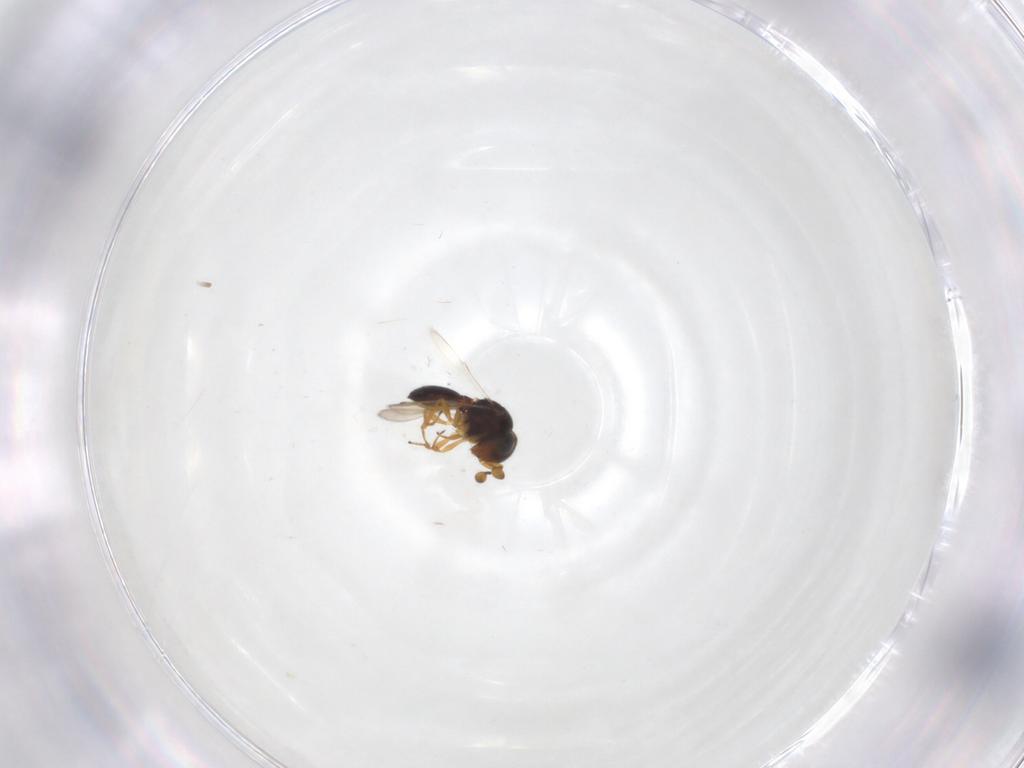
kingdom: Animalia
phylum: Arthropoda
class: Insecta
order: Hymenoptera
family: Scelionidae
